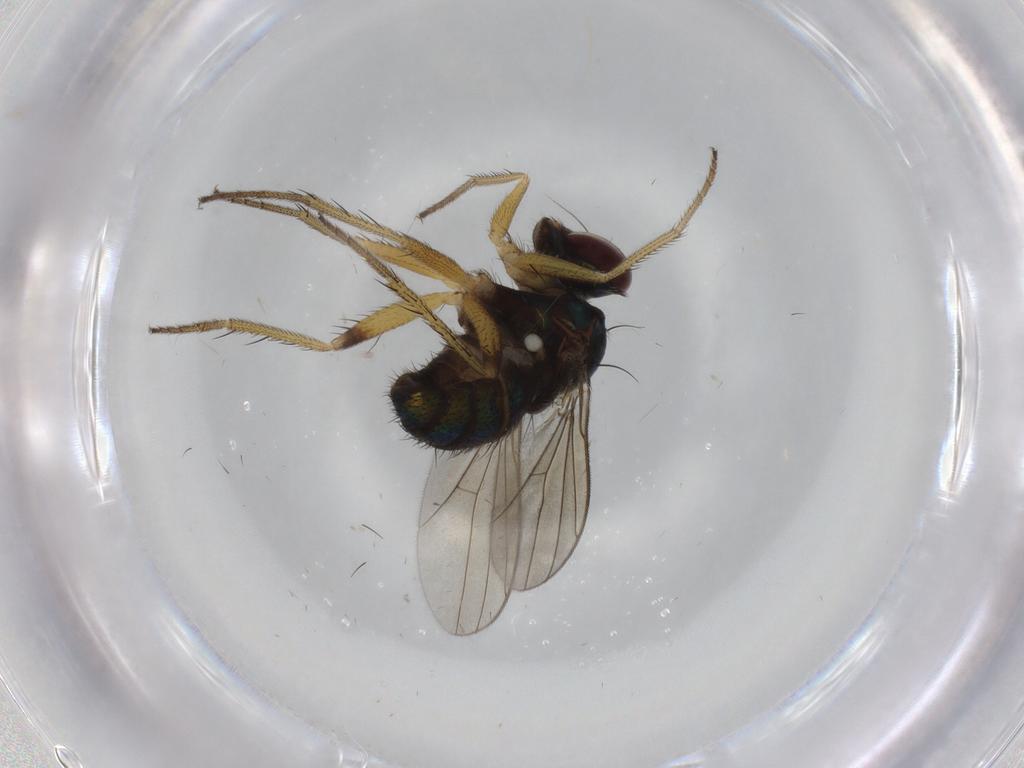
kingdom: Animalia
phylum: Arthropoda
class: Insecta
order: Diptera
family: Dolichopodidae
